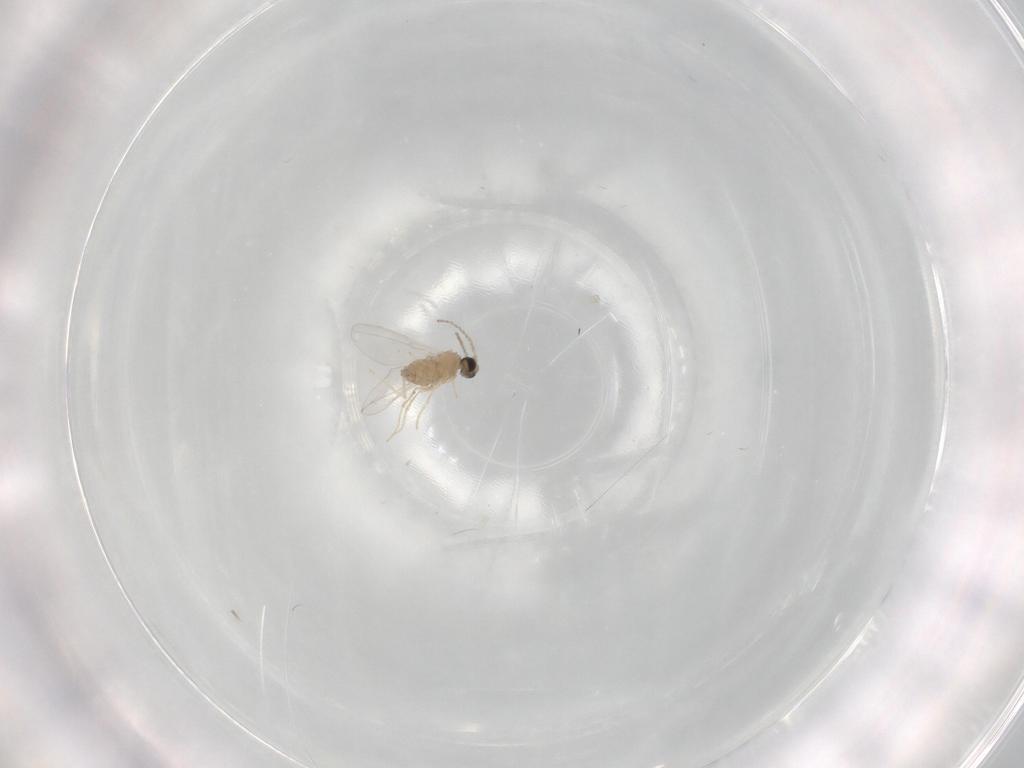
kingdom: Animalia
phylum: Arthropoda
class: Insecta
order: Diptera
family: Cecidomyiidae
